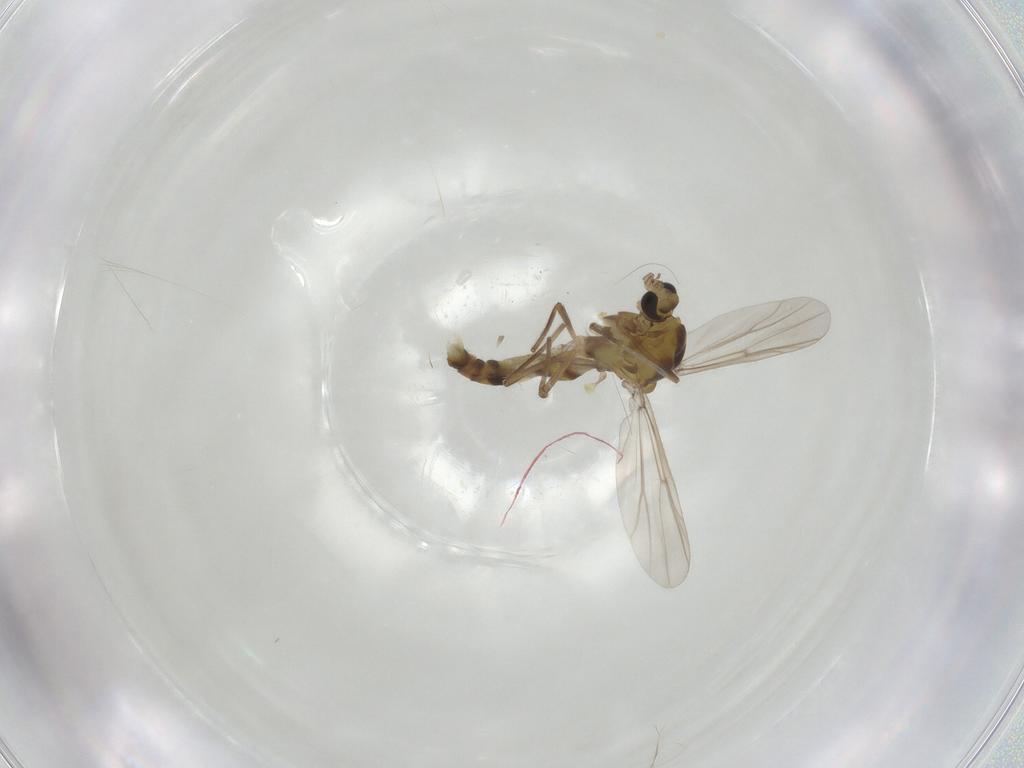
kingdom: Animalia
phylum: Arthropoda
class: Insecta
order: Diptera
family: Chironomidae
